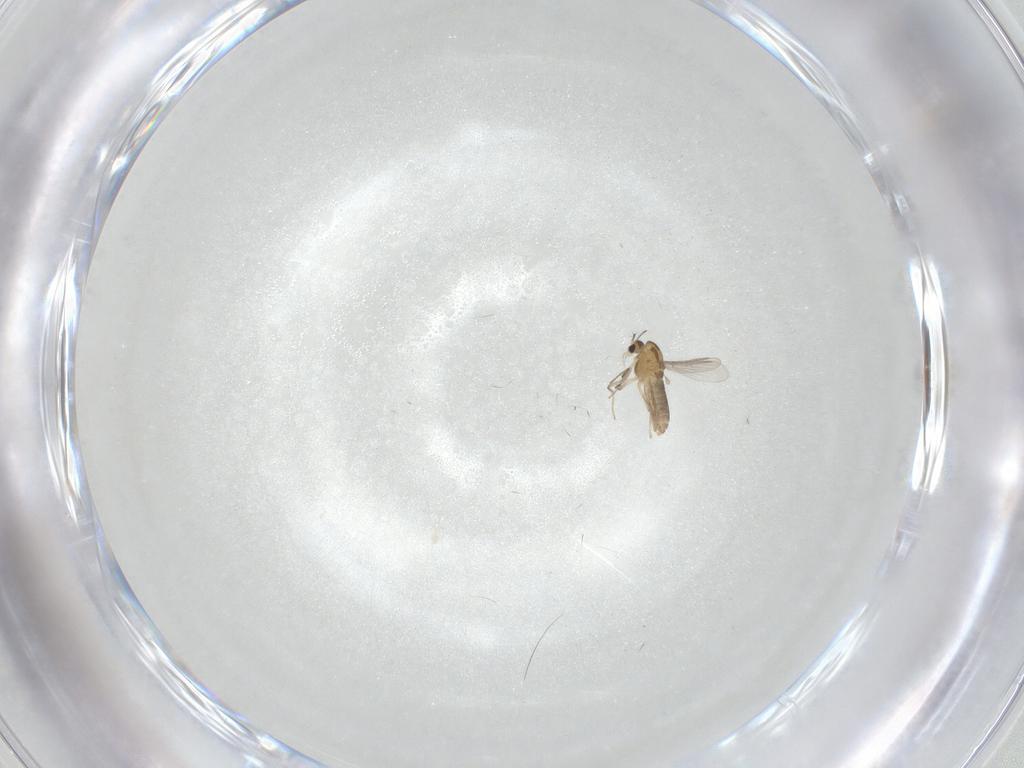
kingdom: Animalia
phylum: Arthropoda
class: Insecta
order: Diptera
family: Chironomidae
